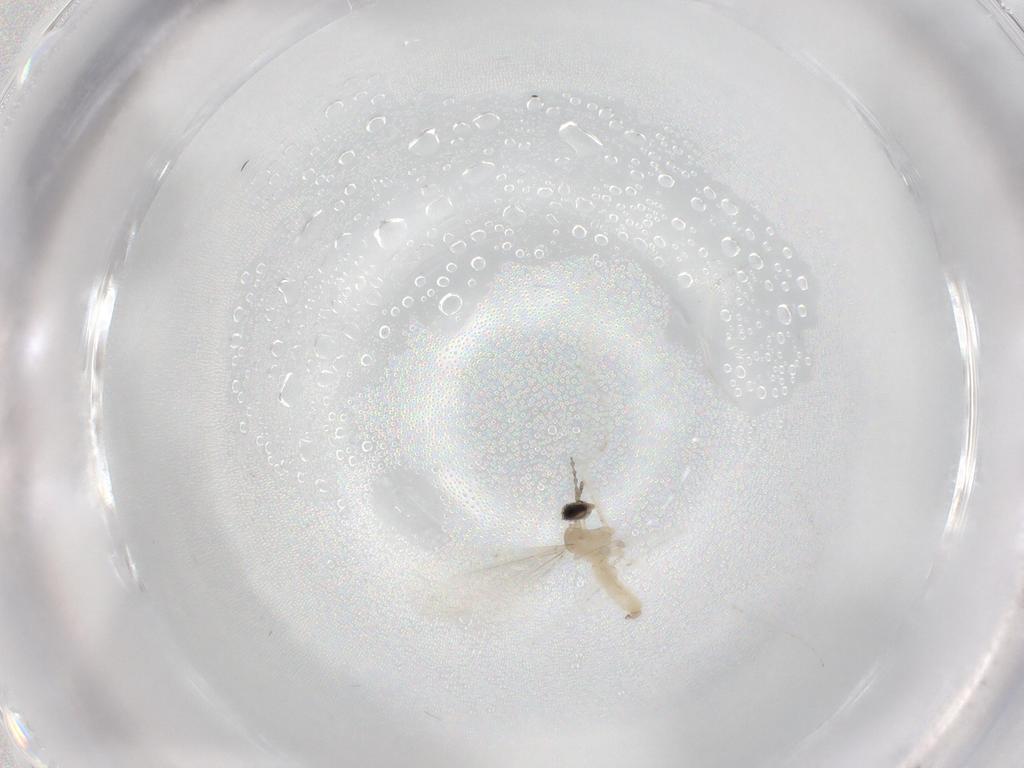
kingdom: Animalia
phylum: Arthropoda
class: Insecta
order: Diptera
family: Cecidomyiidae
